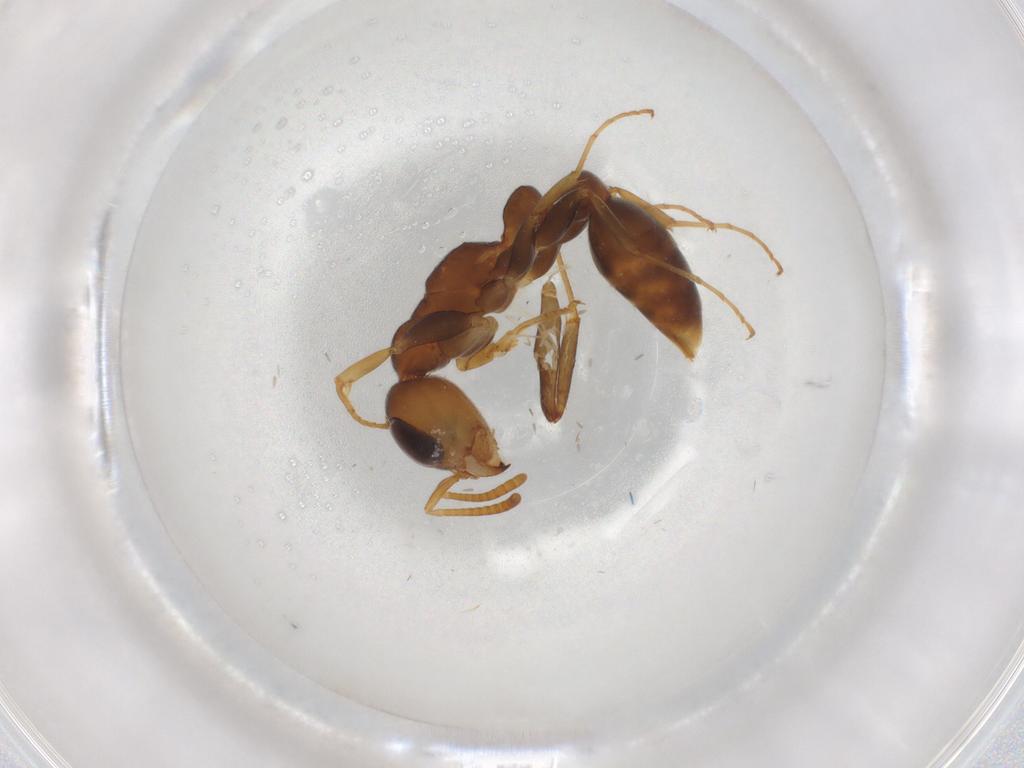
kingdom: Animalia
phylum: Arthropoda
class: Insecta
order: Hymenoptera
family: Formicidae
